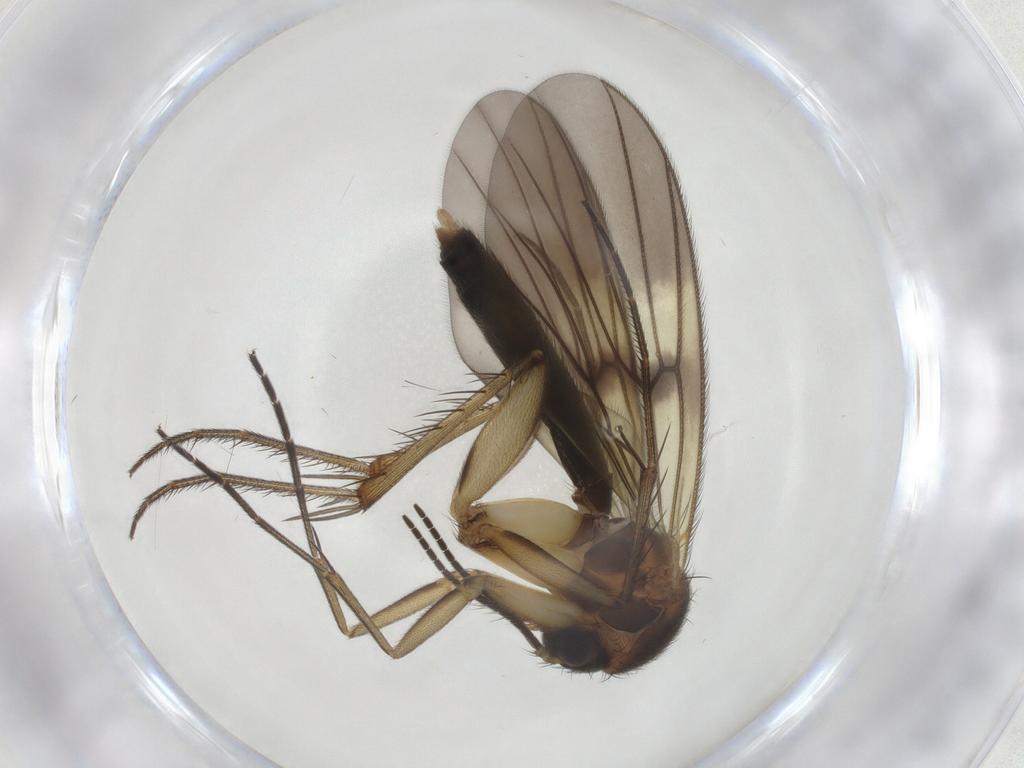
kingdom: Animalia
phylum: Arthropoda
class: Insecta
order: Diptera
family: Mycetophilidae
